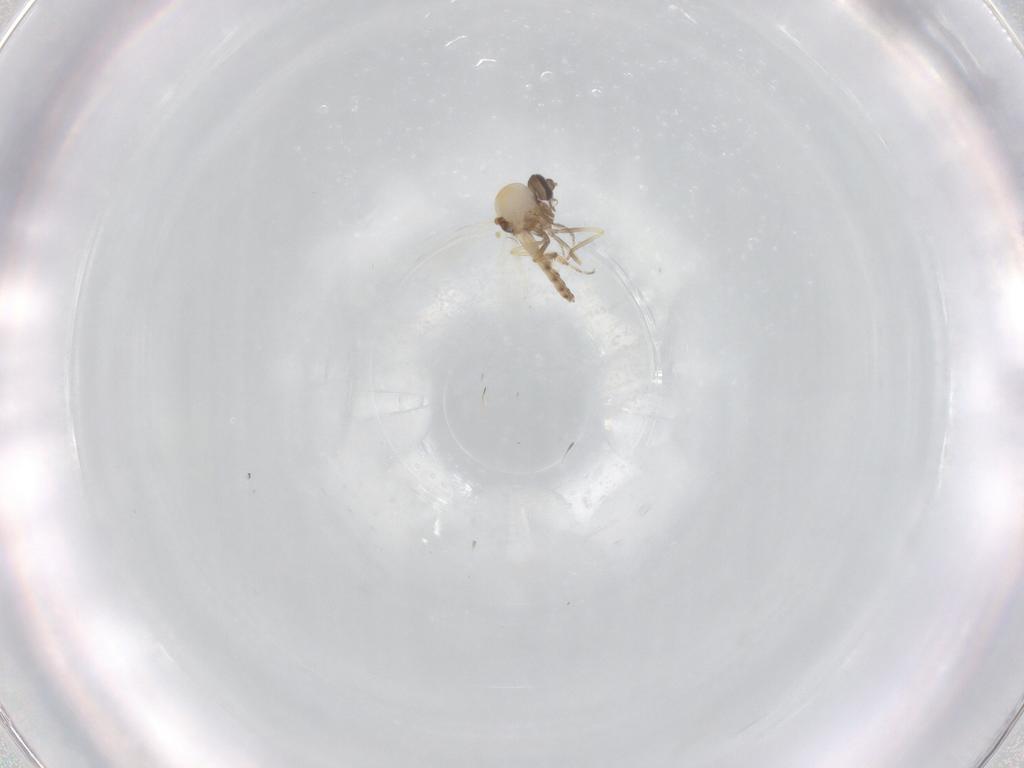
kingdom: Animalia
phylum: Arthropoda
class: Insecta
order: Diptera
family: Ceratopogonidae
